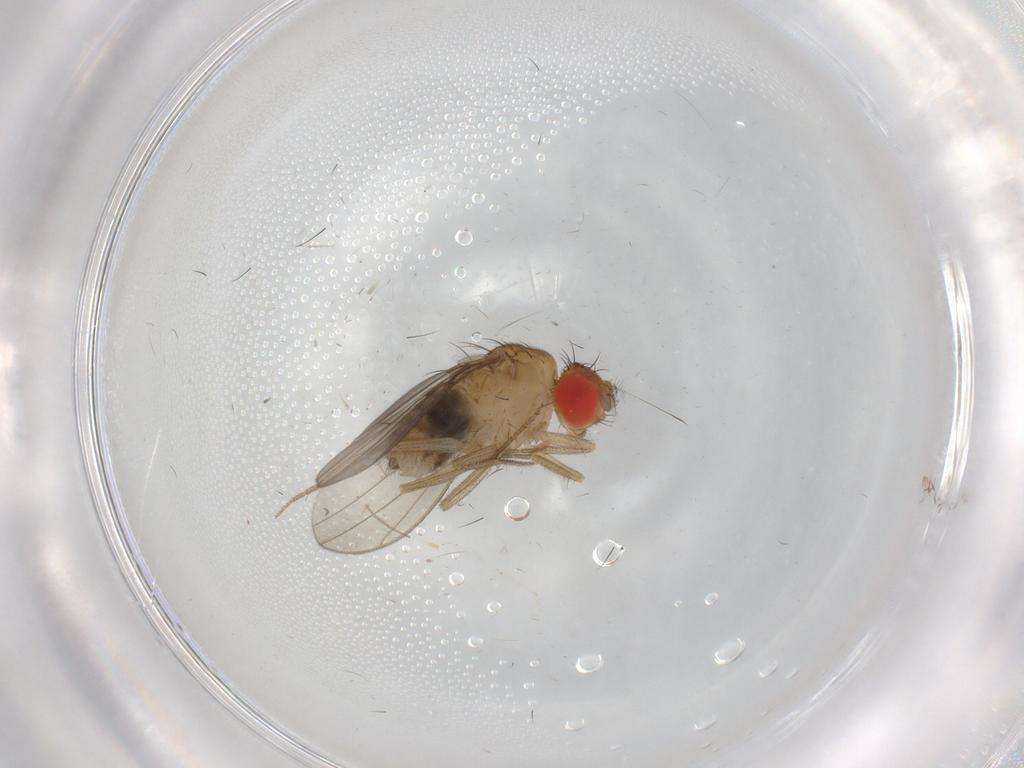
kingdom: Animalia
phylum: Arthropoda
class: Insecta
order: Diptera
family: Drosophilidae
